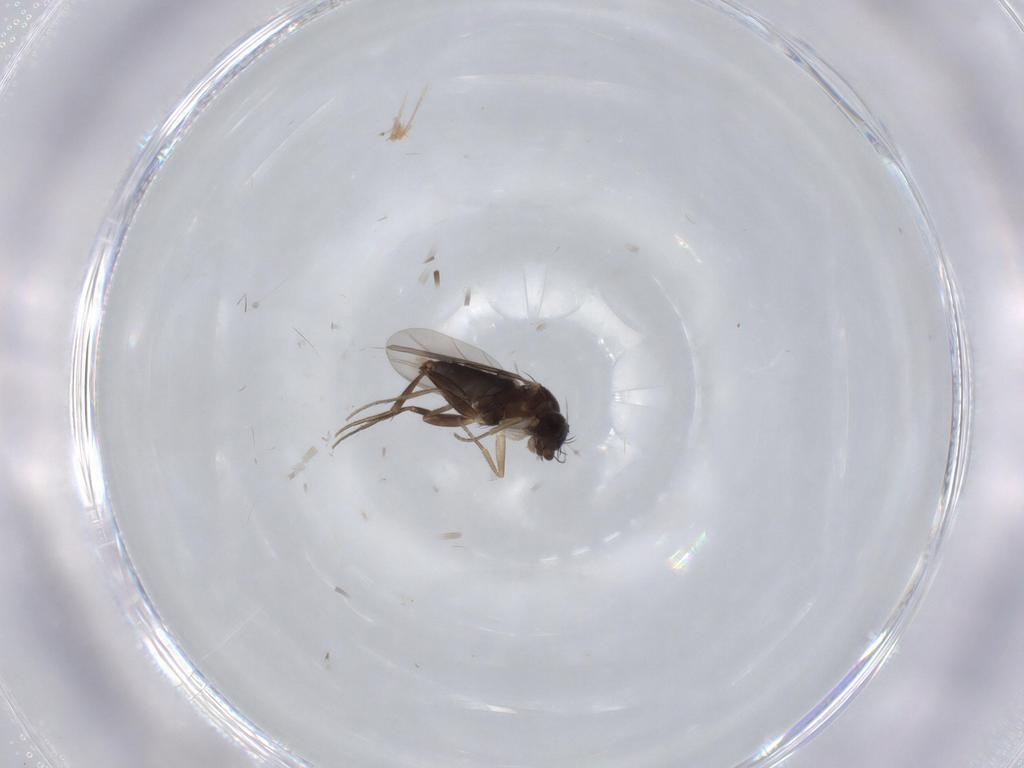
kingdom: Animalia
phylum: Arthropoda
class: Insecta
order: Diptera
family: Phoridae
